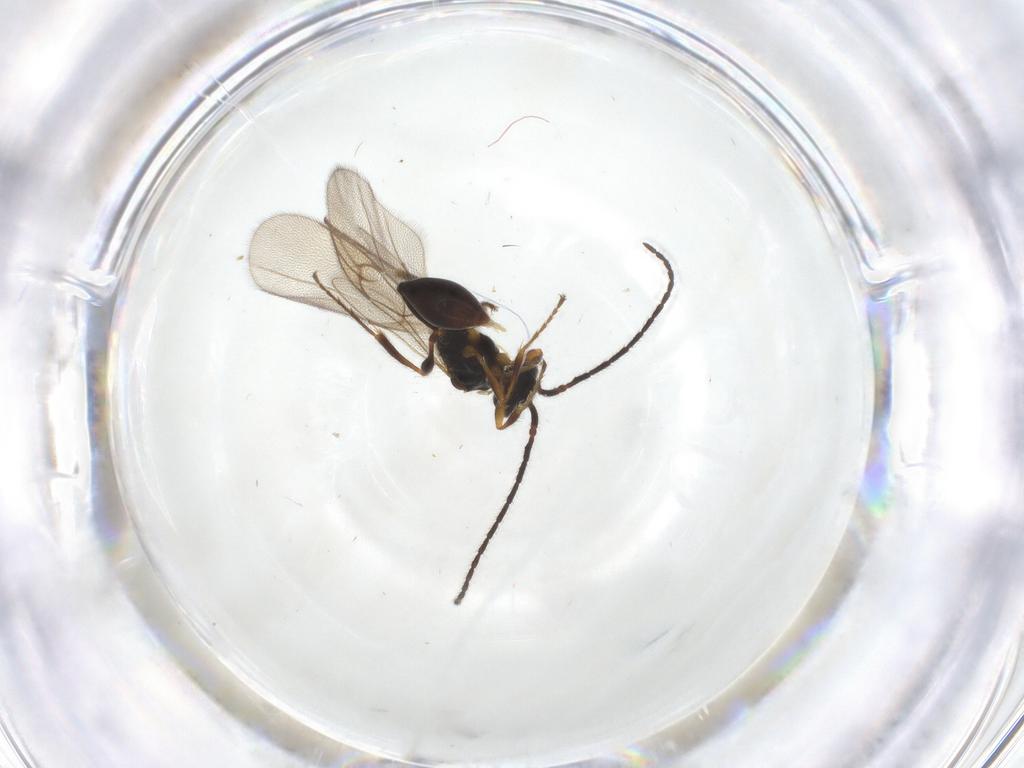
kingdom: Animalia
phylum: Arthropoda
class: Insecta
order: Hymenoptera
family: Diapriidae
